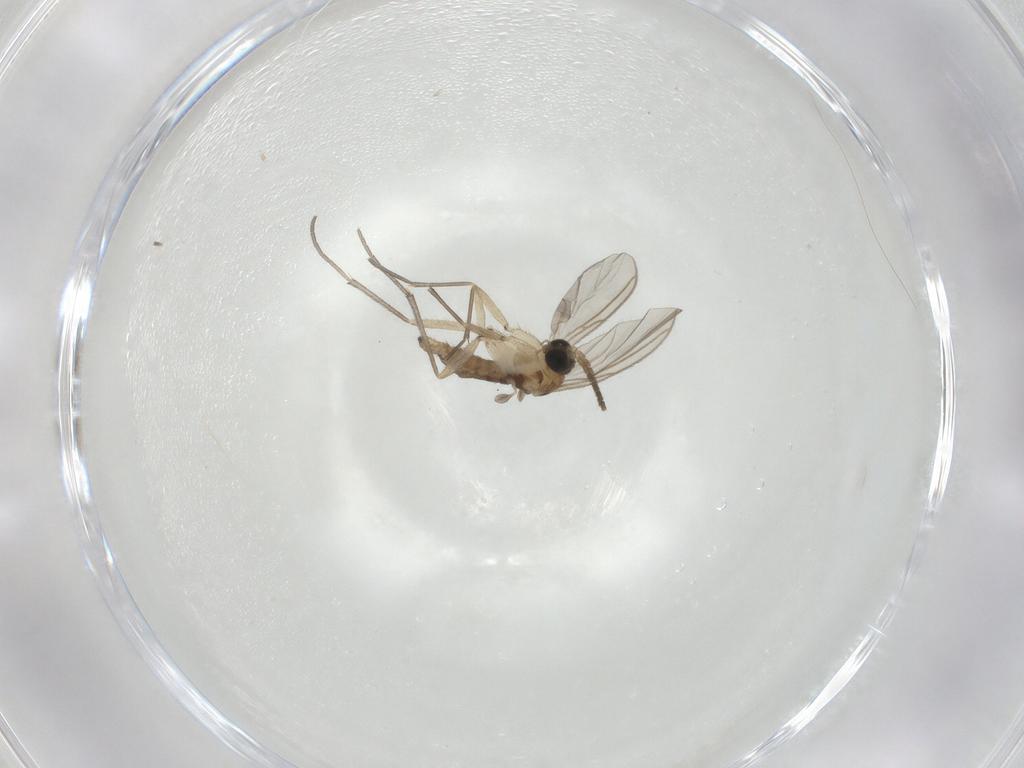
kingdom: Animalia
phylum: Arthropoda
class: Insecta
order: Diptera
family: Sciaridae
